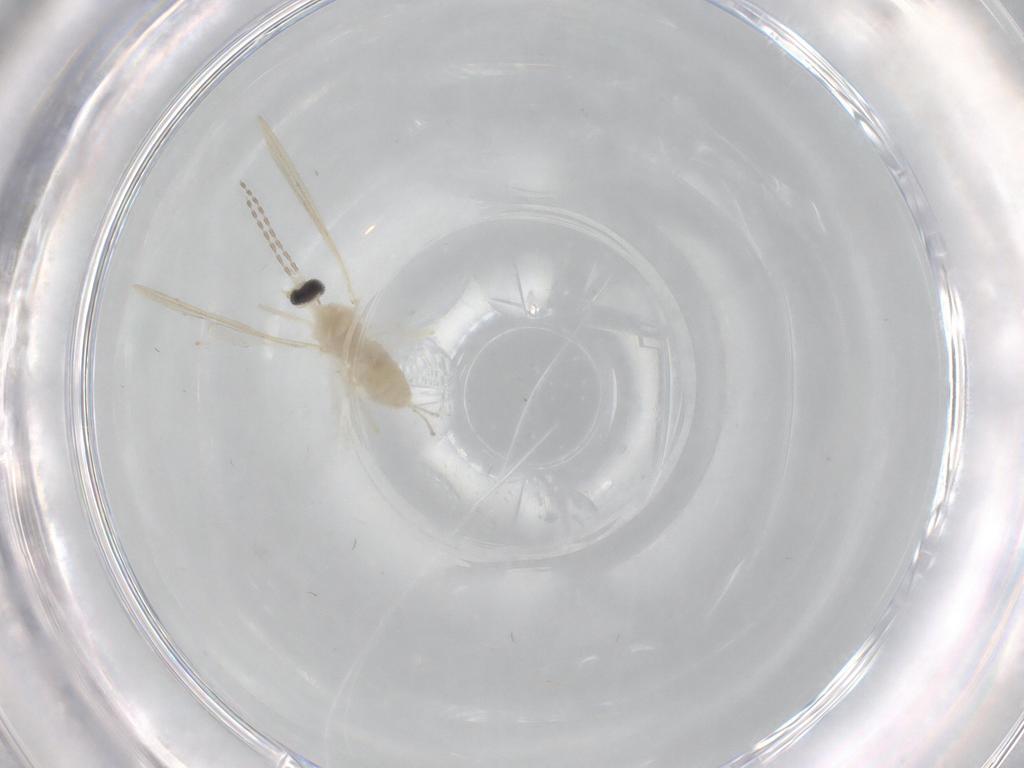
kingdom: Animalia
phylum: Arthropoda
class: Insecta
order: Diptera
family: Cecidomyiidae
